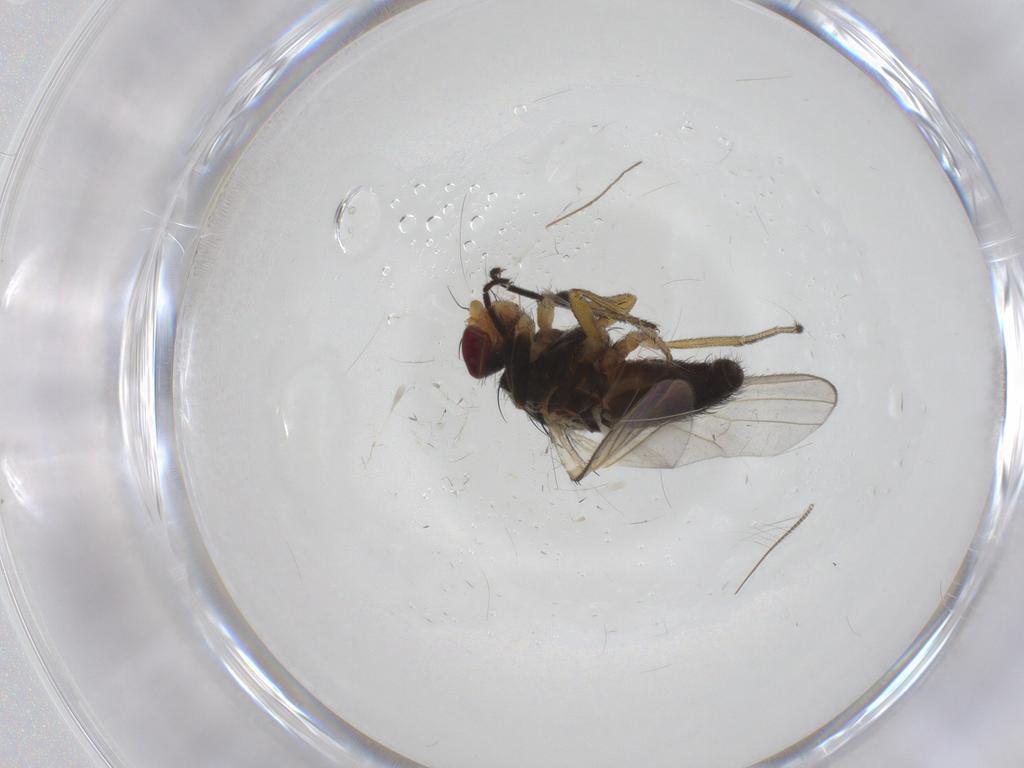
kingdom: Animalia
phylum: Arthropoda
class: Insecta
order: Diptera
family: Heleomyzidae
